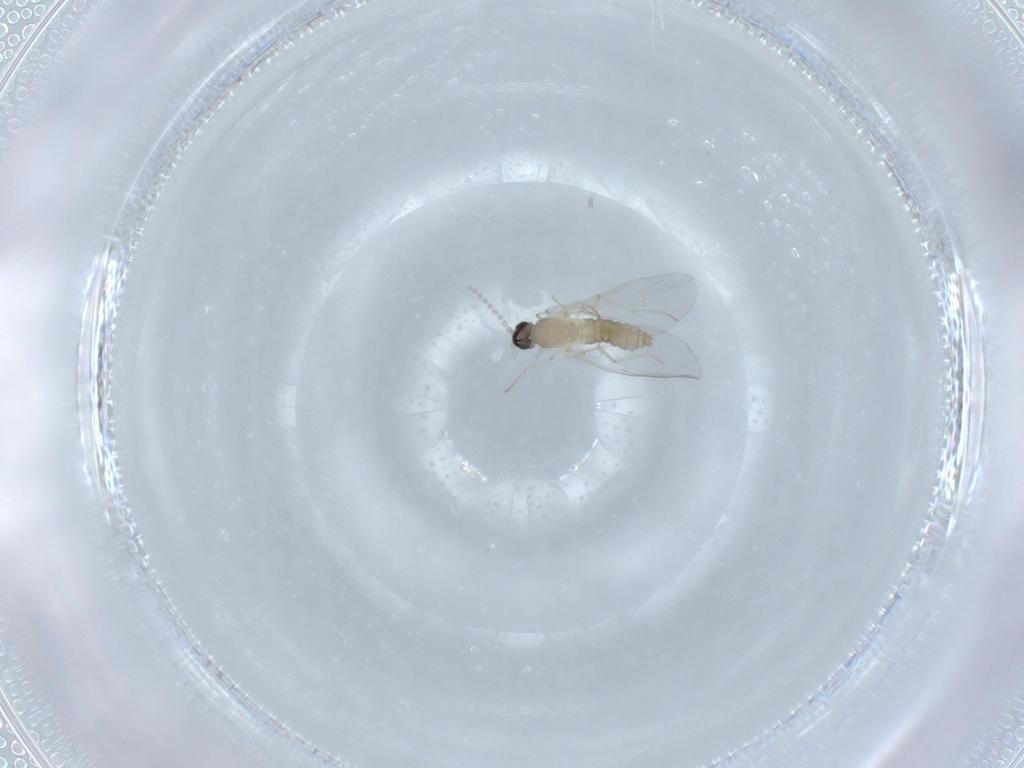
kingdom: Animalia
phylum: Arthropoda
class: Insecta
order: Diptera
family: Cecidomyiidae
